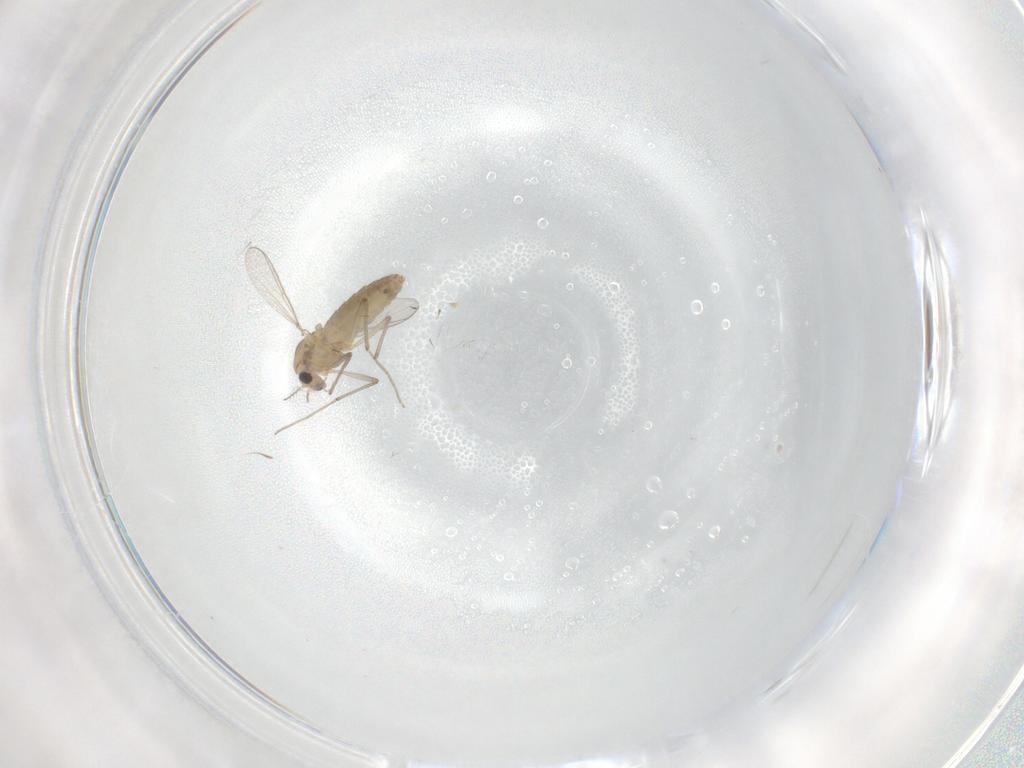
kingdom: Animalia
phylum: Arthropoda
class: Insecta
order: Diptera
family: Chironomidae
